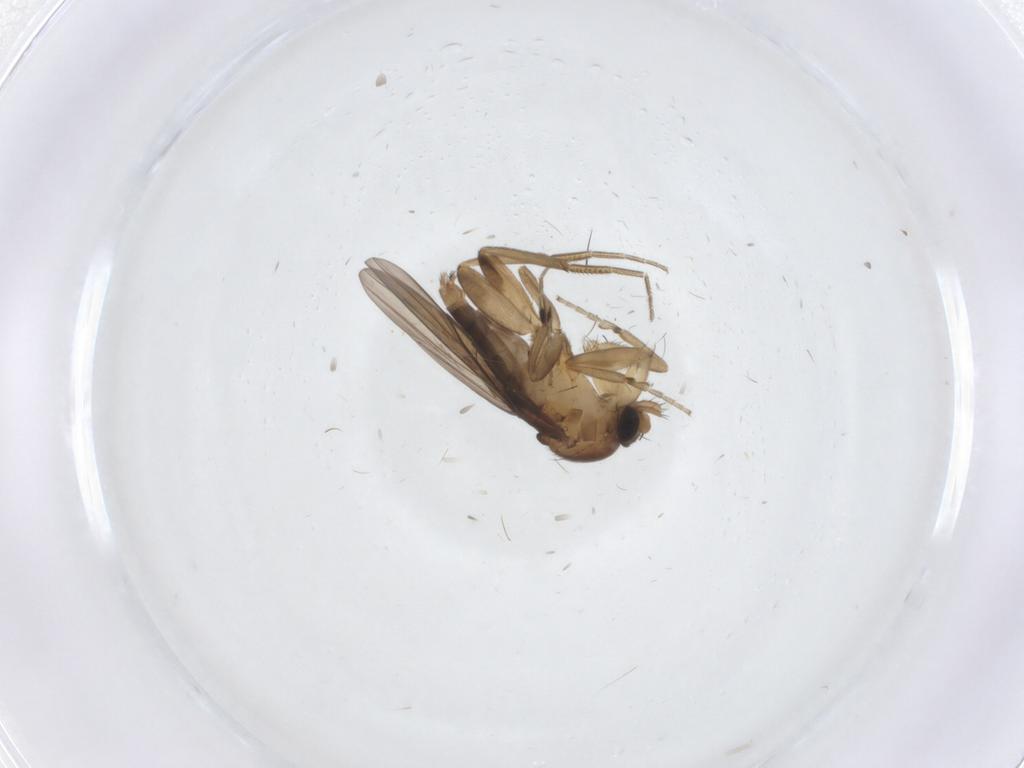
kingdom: Animalia
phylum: Arthropoda
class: Insecta
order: Diptera
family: Phoridae
